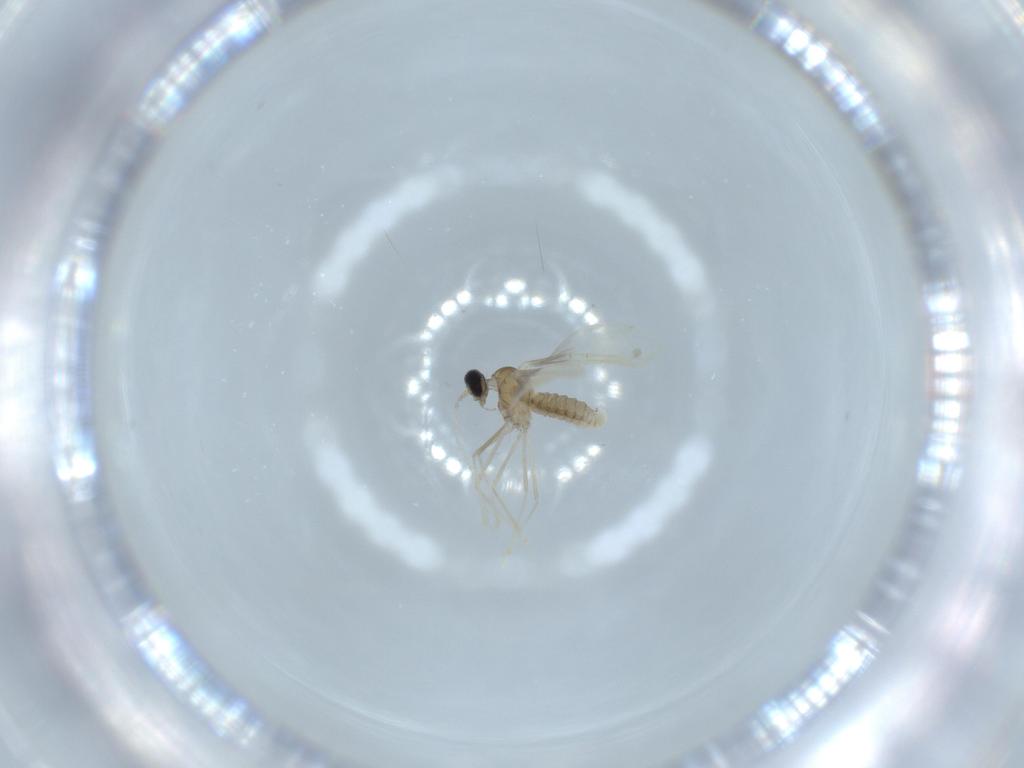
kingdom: Animalia
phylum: Arthropoda
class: Insecta
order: Diptera
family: Cecidomyiidae
